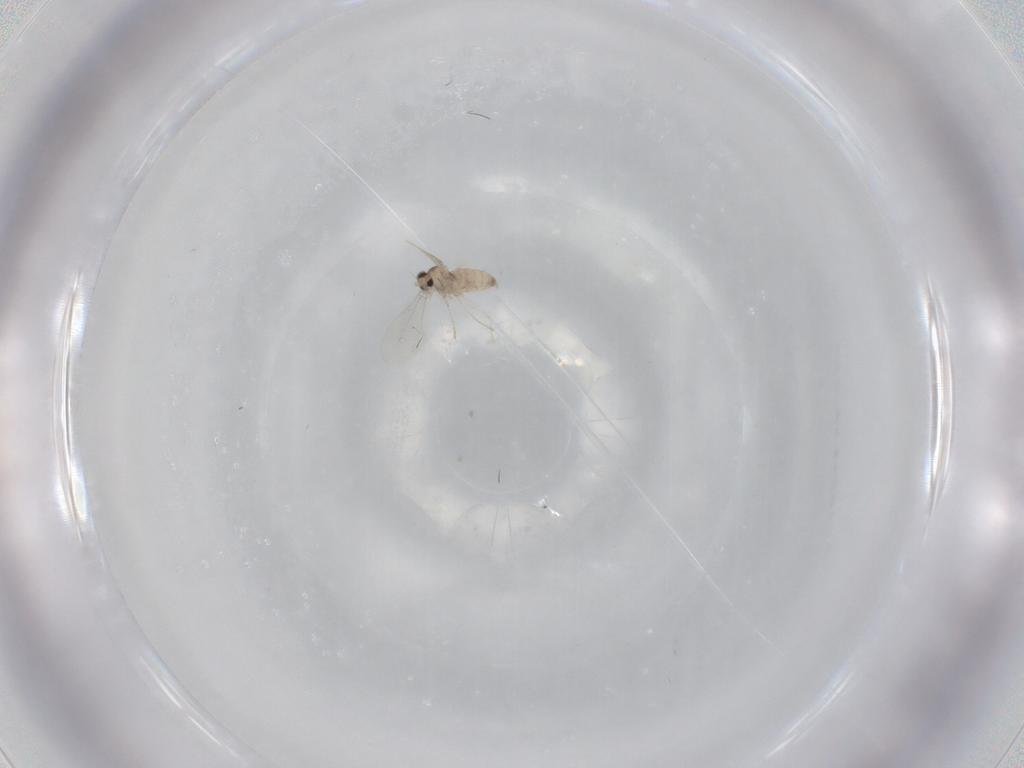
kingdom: Animalia
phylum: Arthropoda
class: Insecta
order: Diptera
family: Cecidomyiidae
